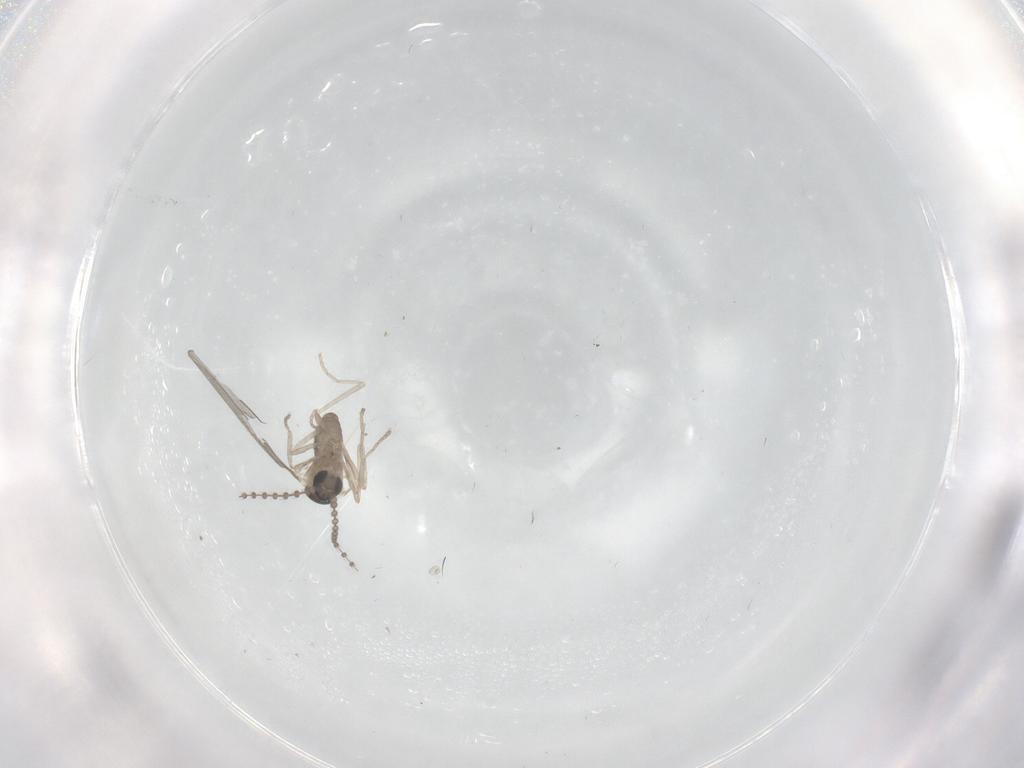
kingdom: Animalia
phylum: Arthropoda
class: Insecta
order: Diptera
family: Cecidomyiidae
